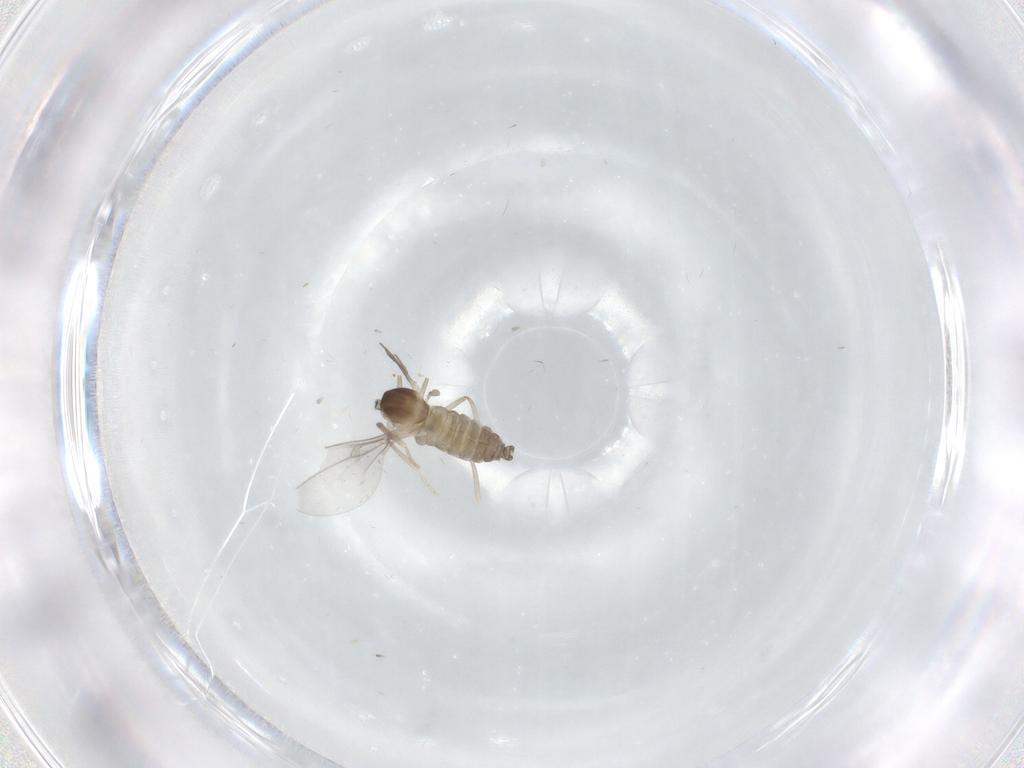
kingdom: Animalia
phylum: Arthropoda
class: Insecta
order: Diptera
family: Cecidomyiidae
